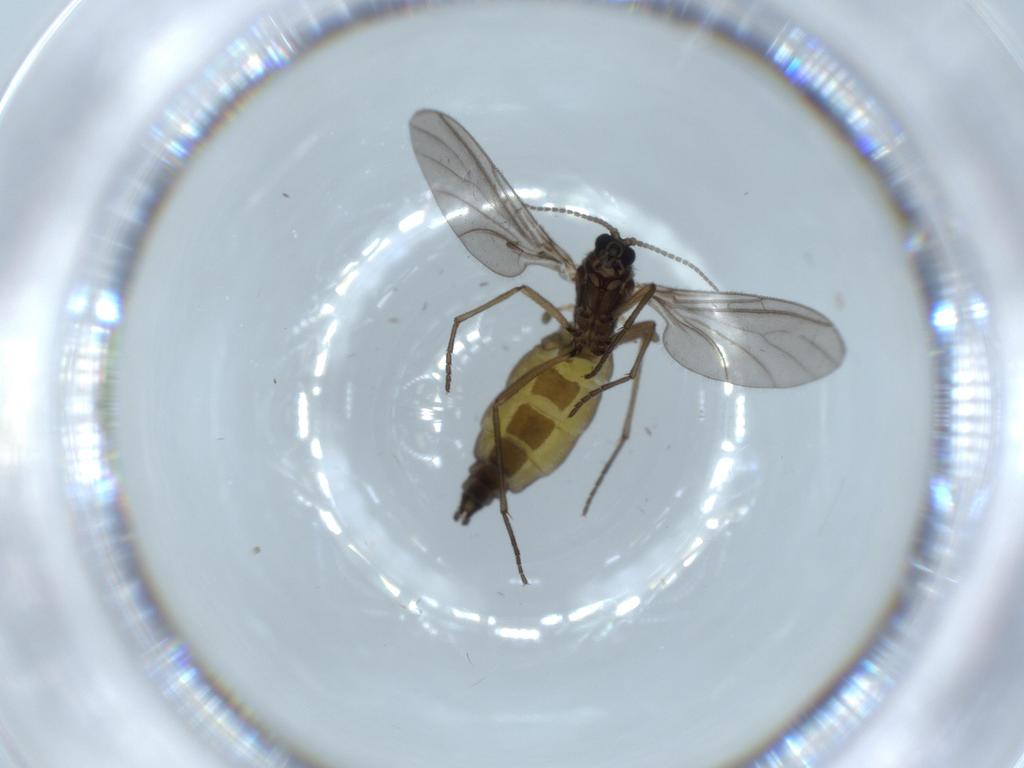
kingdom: Animalia
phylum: Arthropoda
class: Insecta
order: Diptera
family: Sciaridae
